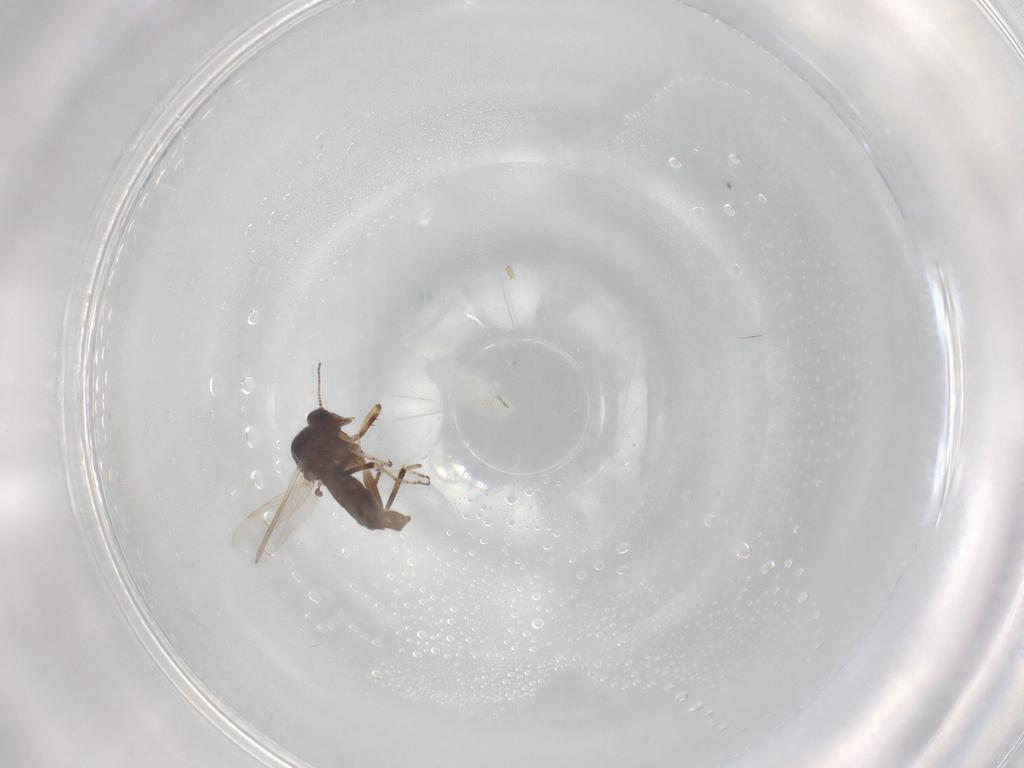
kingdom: Animalia
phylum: Arthropoda
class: Insecta
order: Diptera
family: Ceratopogonidae
